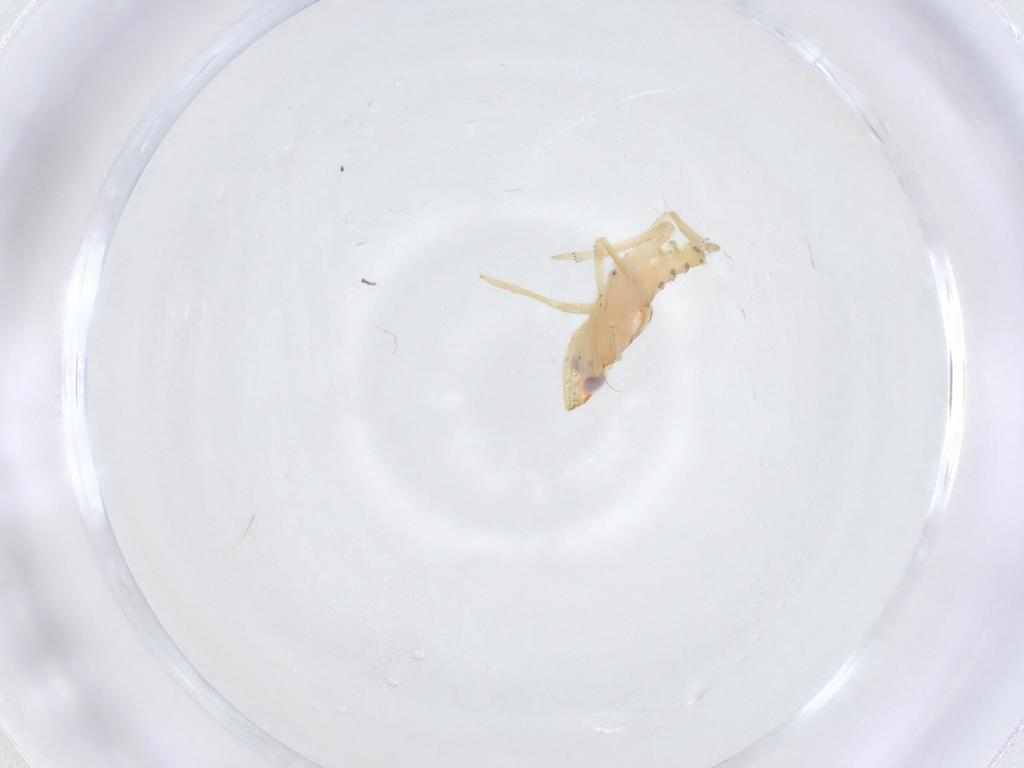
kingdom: Animalia
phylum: Arthropoda
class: Insecta
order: Hemiptera
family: Tropiduchidae
